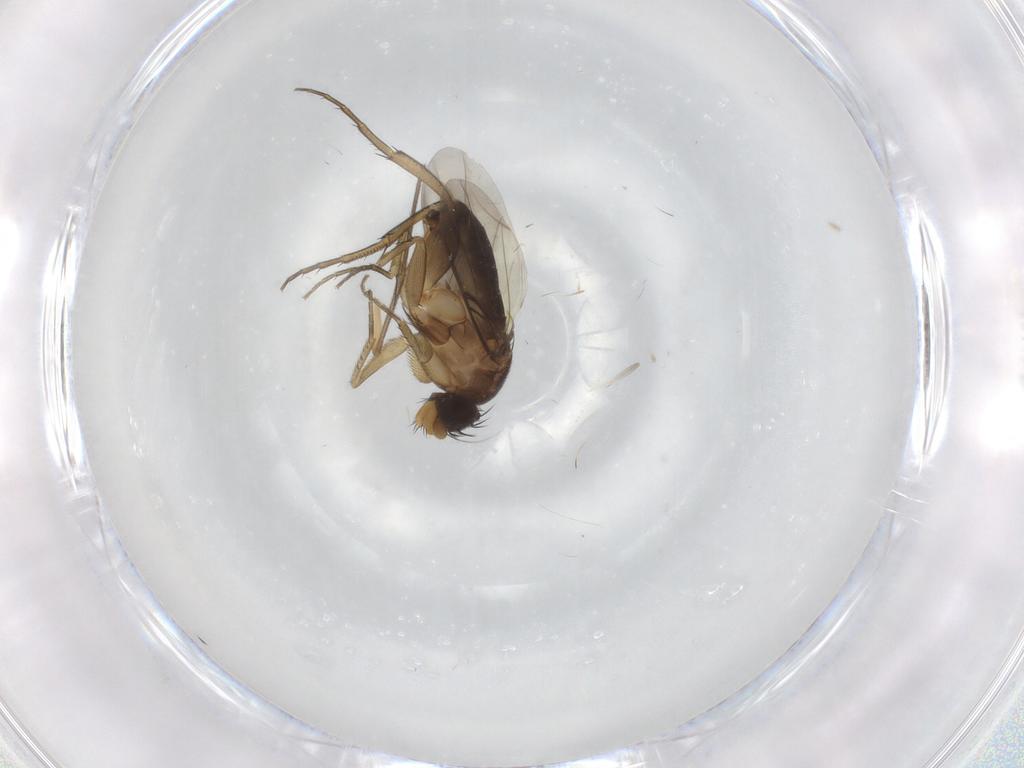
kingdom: Animalia
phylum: Arthropoda
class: Insecta
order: Diptera
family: Phoridae
